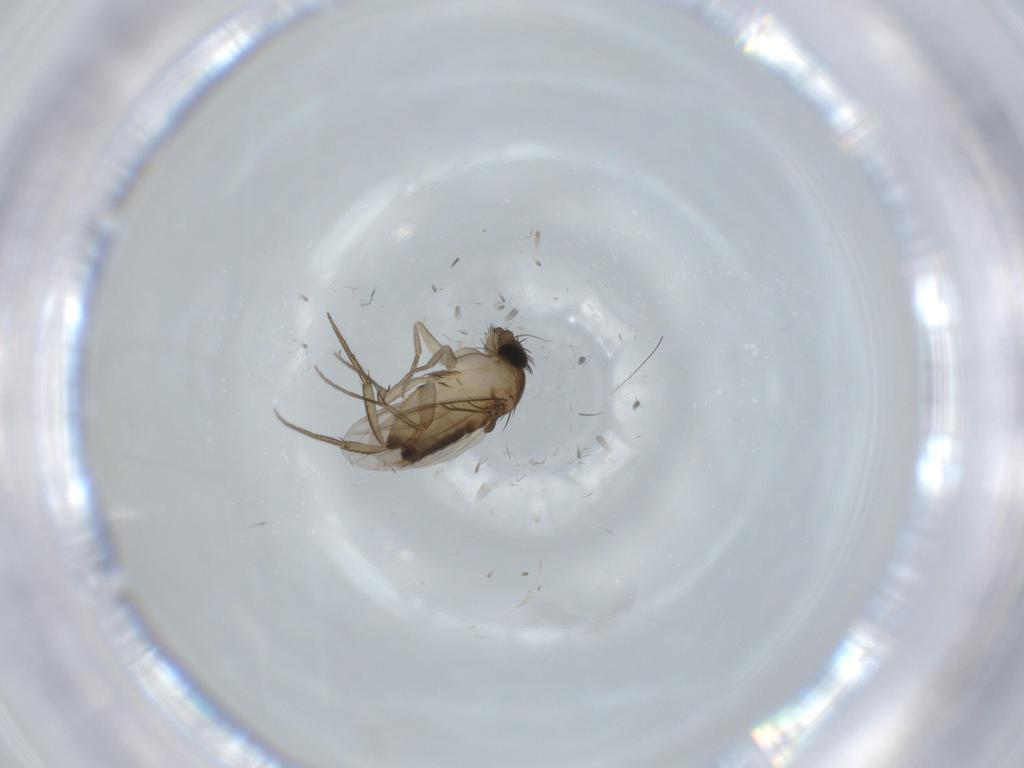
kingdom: Animalia
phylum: Arthropoda
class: Insecta
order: Diptera
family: Phoridae
